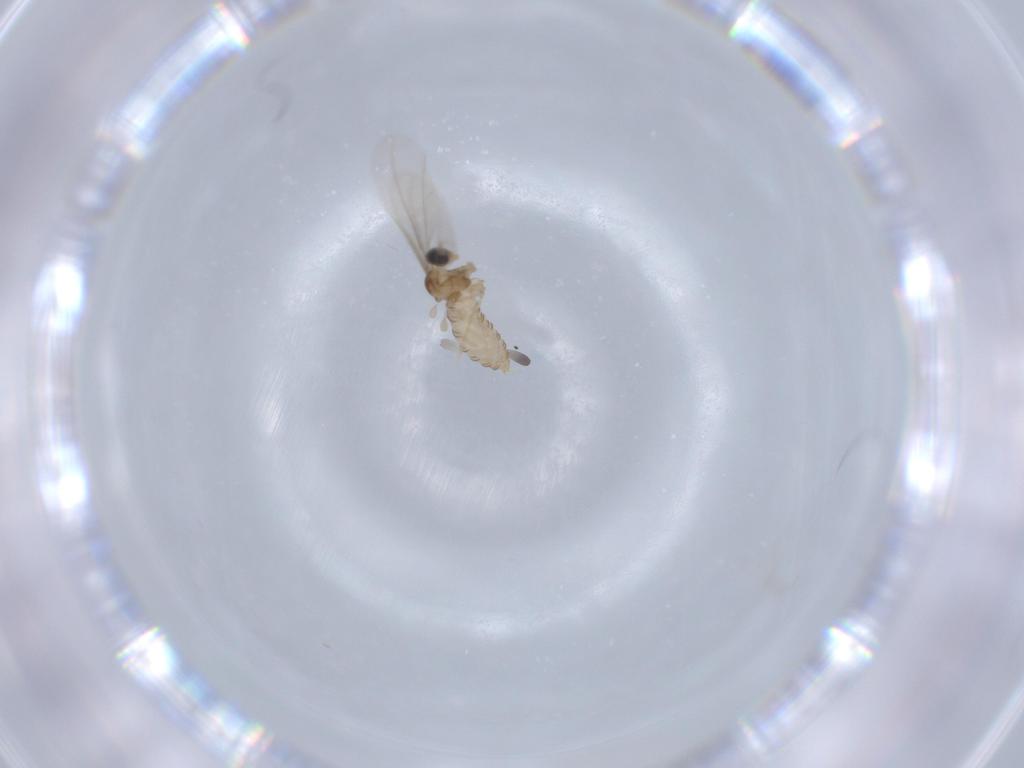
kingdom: Animalia
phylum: Arthropoda
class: Insecta
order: Diptera
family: Cecidomyiidae
